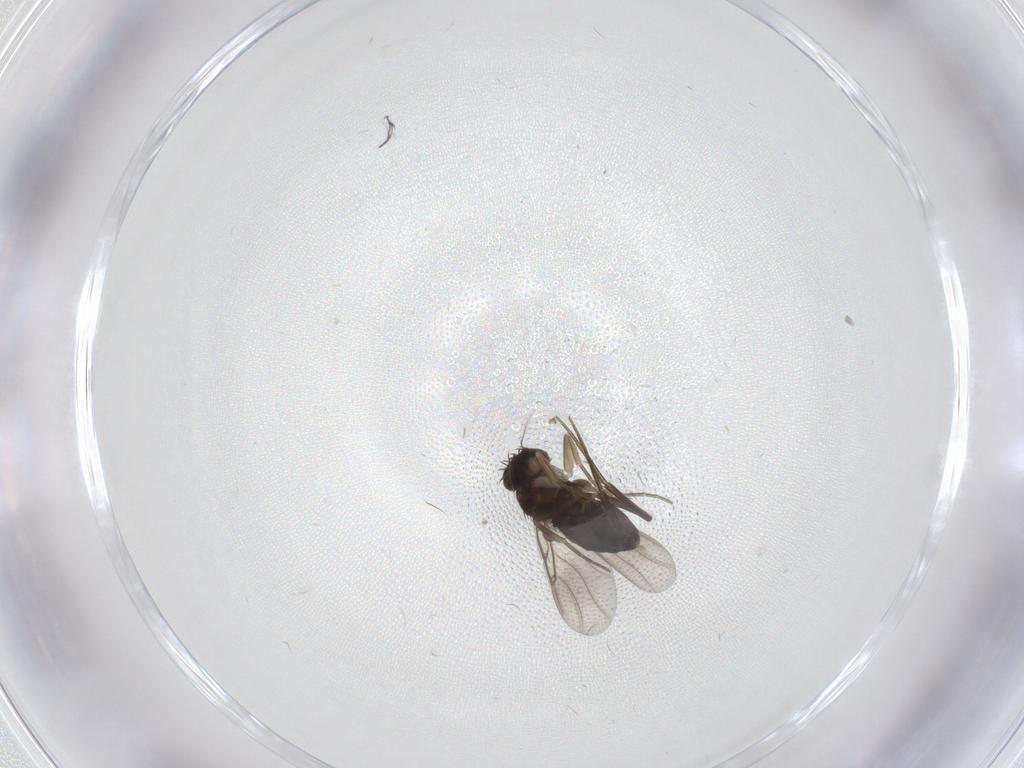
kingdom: Animalia
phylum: Arthropoda
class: Insecta
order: Diptera
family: Phoridae
